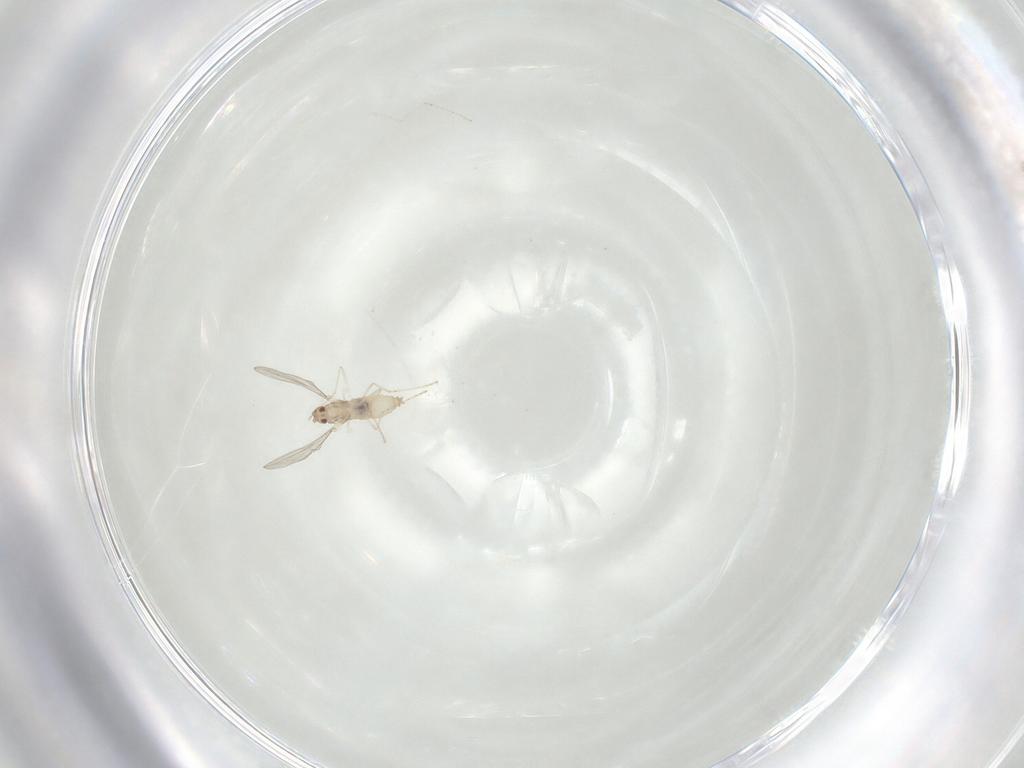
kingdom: Animalia
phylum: Arthropoda
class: Insecta
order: Diptera
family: Cecidomyiidae
